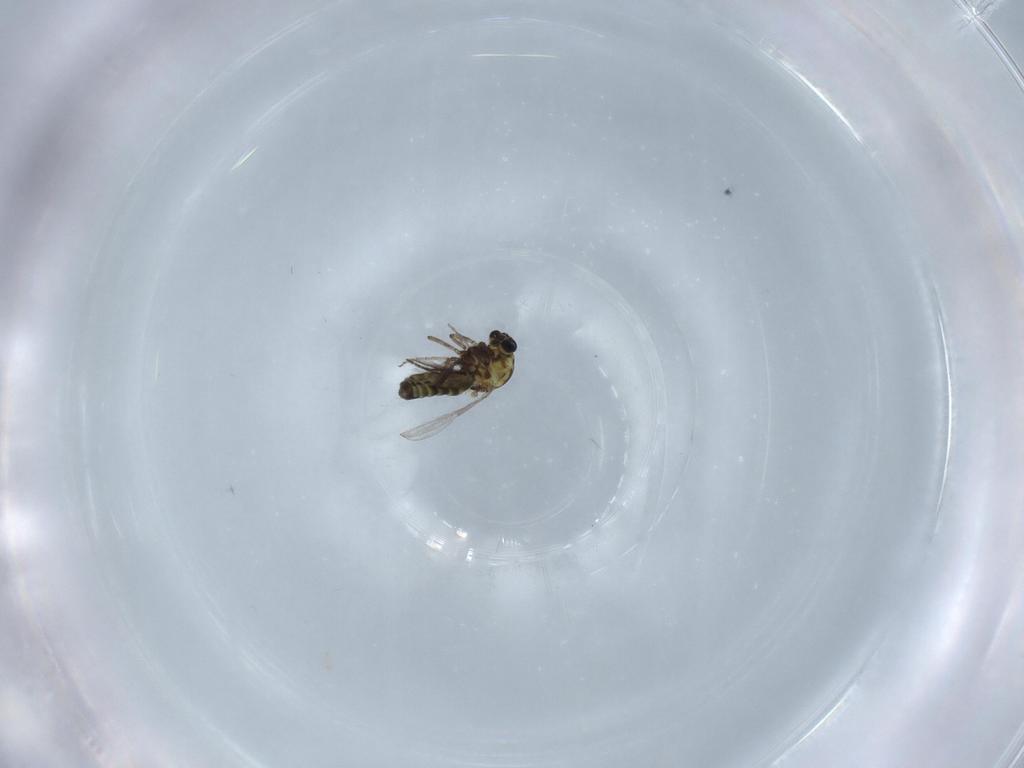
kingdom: Animalia
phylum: Arthropoda
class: Insecta
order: Diptera
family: Ceratopogonidae
